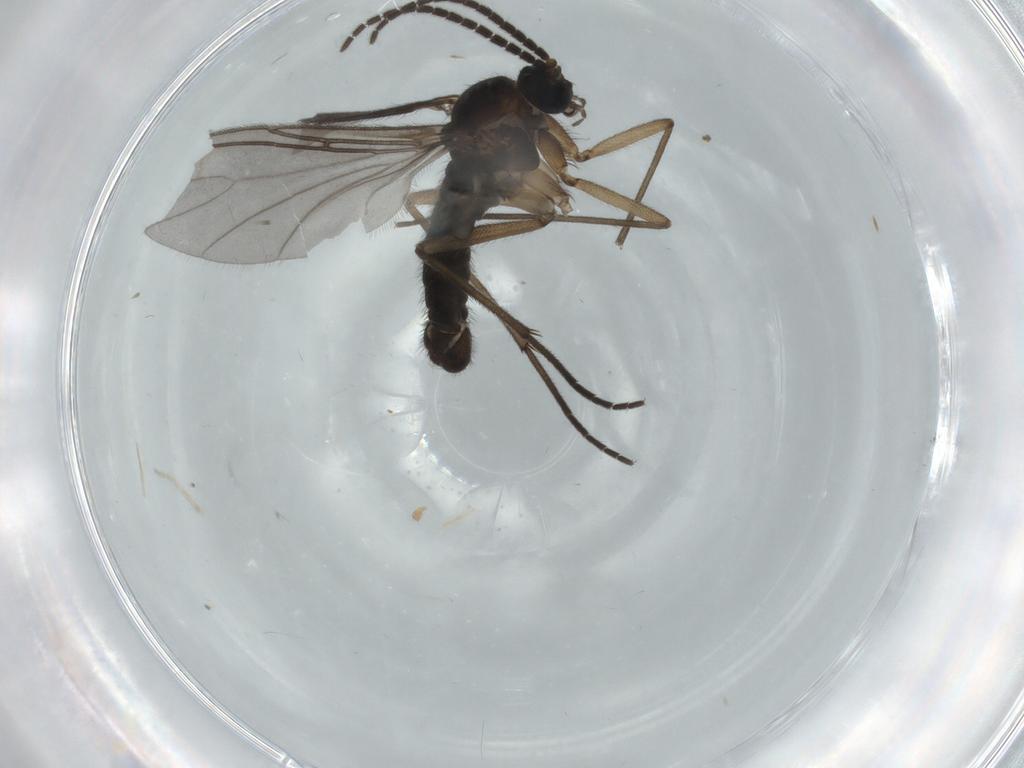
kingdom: Animalia
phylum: Arthropoda
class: Insecta
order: Diptera
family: Sciaridae
